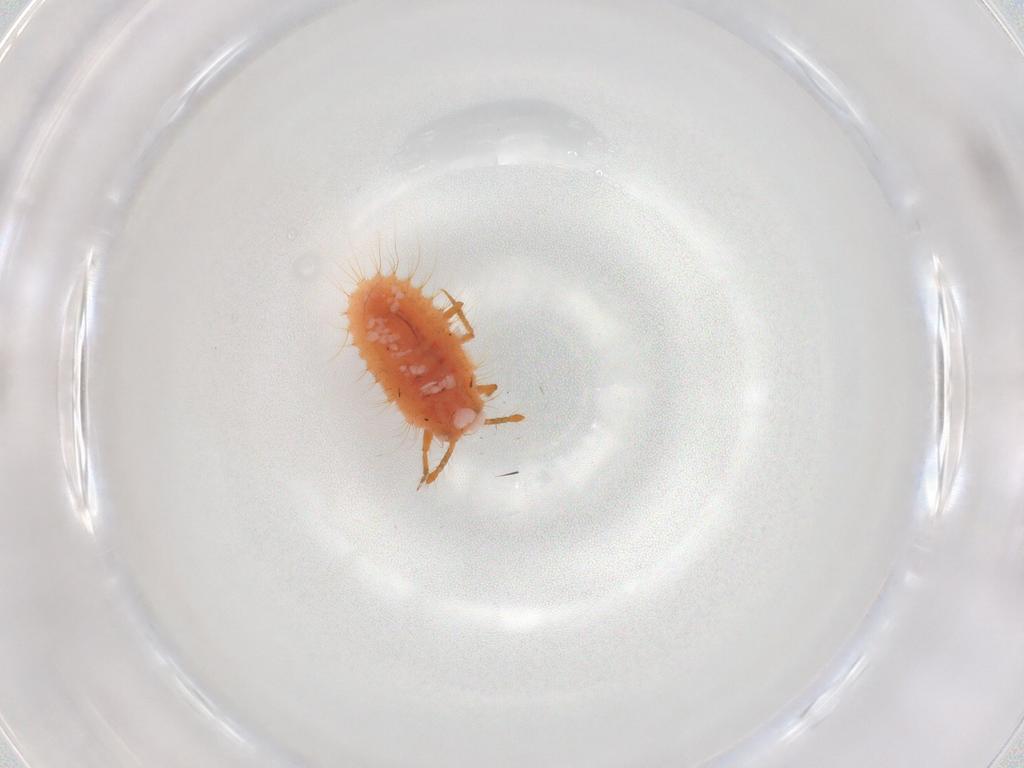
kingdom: Animalia
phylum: Arthropoda
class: Insecta
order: Hemiptera
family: Coccoidea_incertae_sedis
